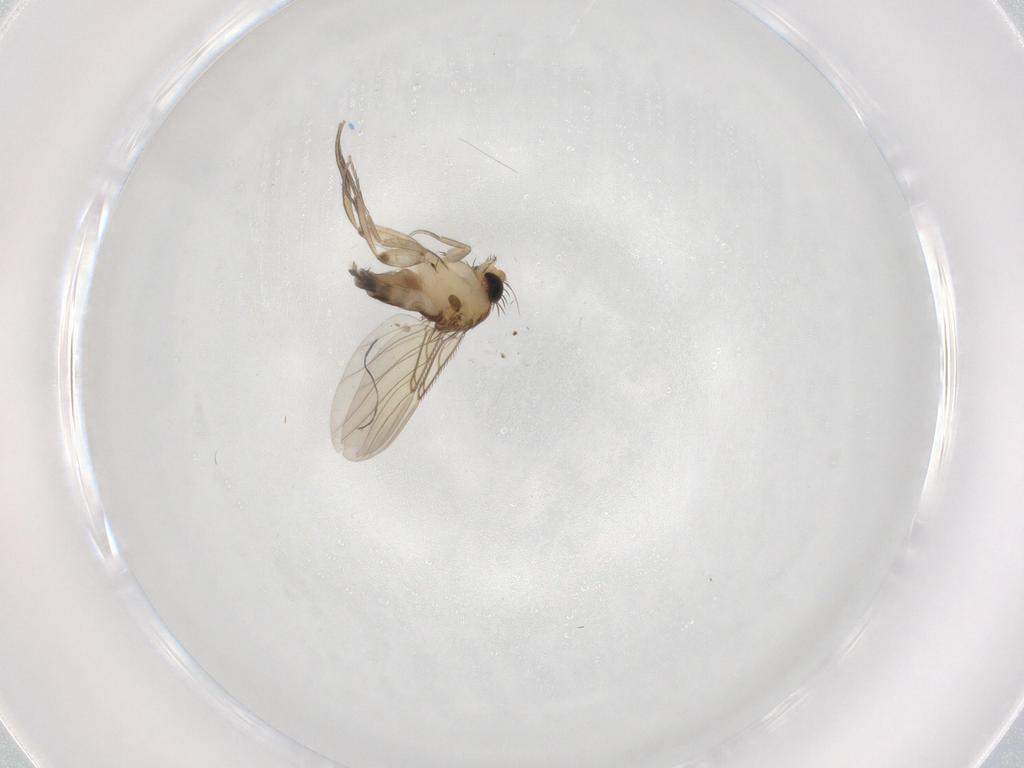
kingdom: Animalia
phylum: Arthropoda
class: Insecta
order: Diptera
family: Phoridae
